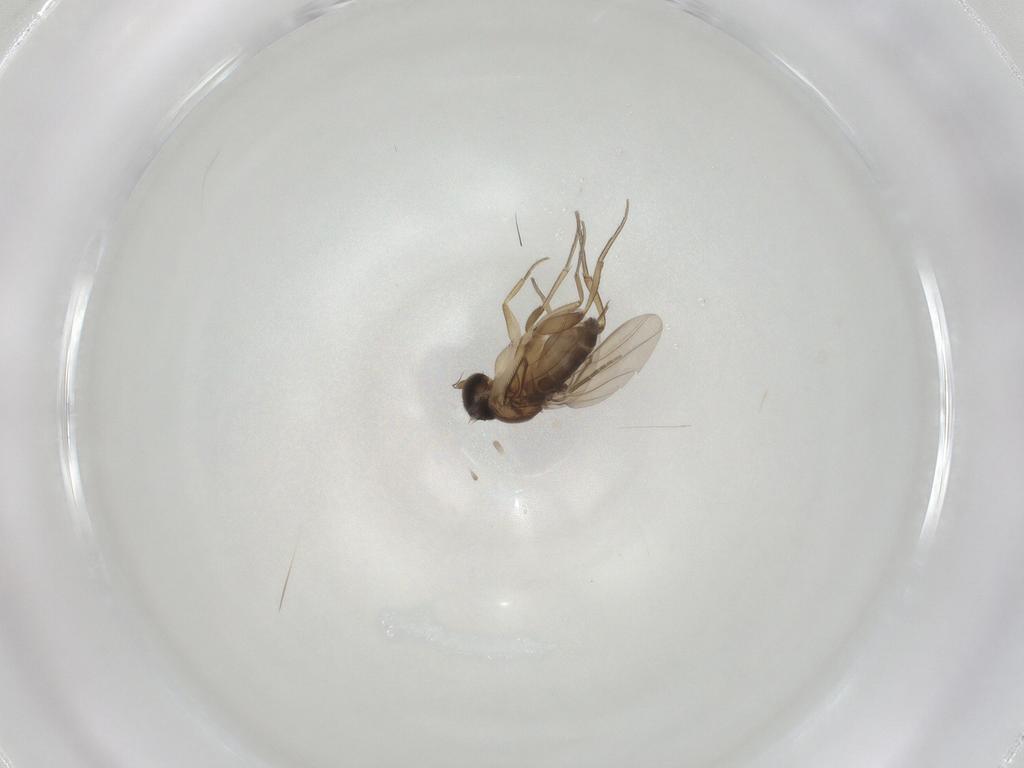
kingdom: Animalia
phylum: Arthropoda
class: Insecta
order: Diptera
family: Phoridae
